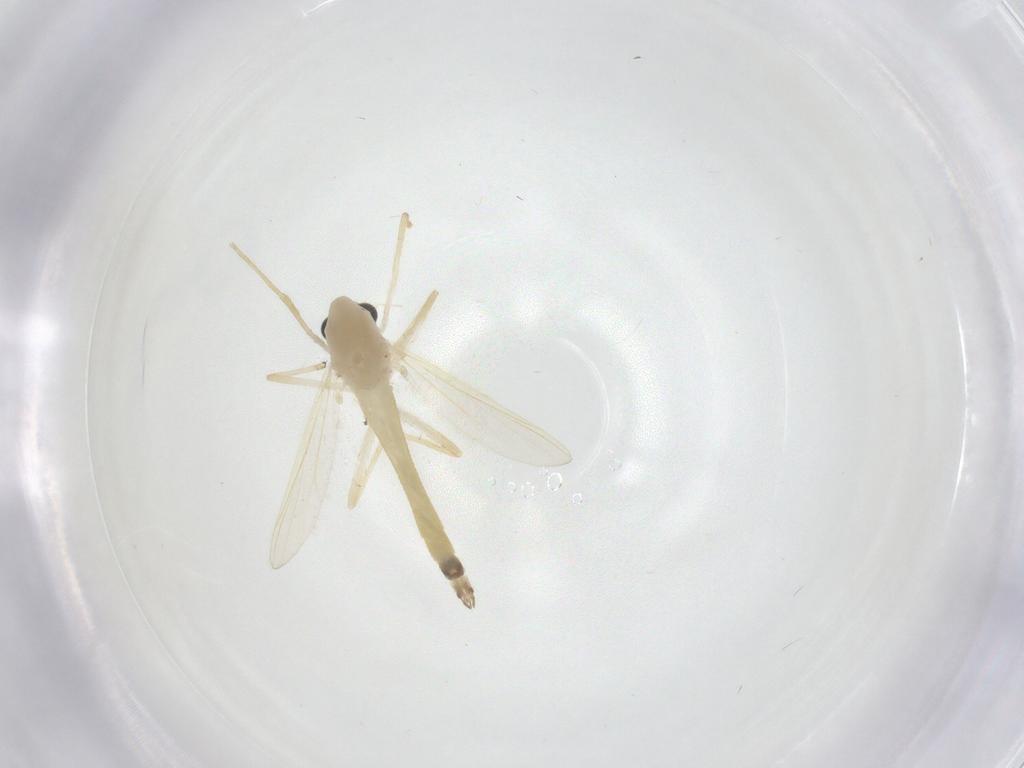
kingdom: Animalia
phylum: Arthropoda
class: Insecta
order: Diptera
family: Chironomidae
